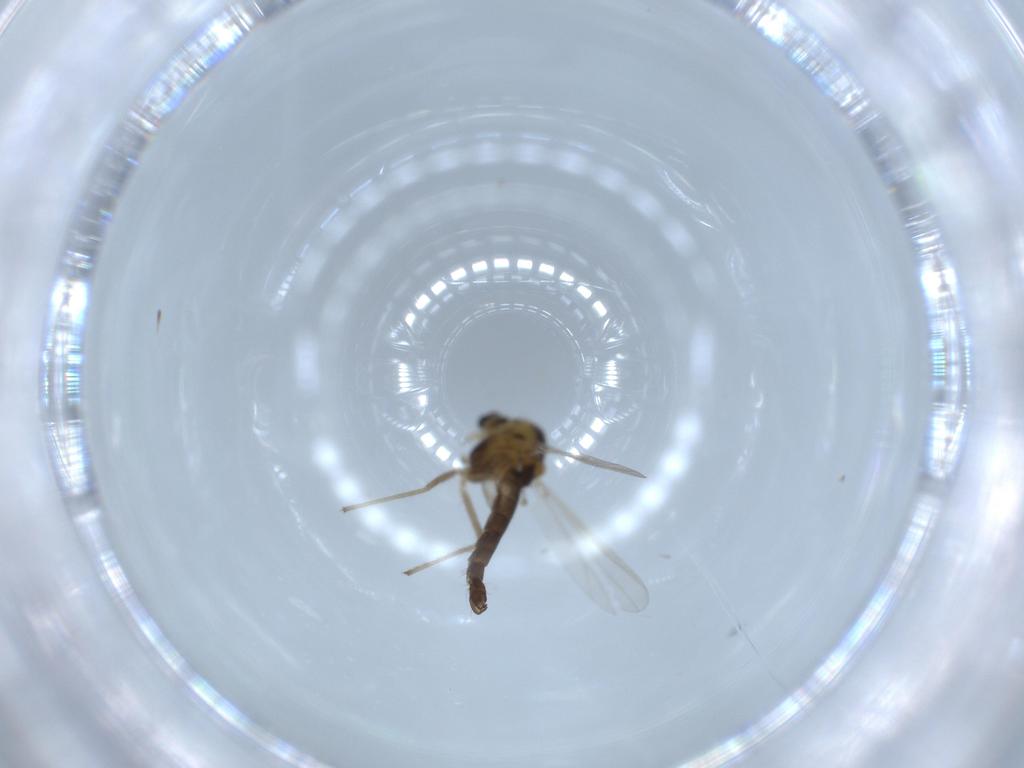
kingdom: Animalia
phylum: Arthropoda
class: Insecta
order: Diptera
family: Chironomidae
